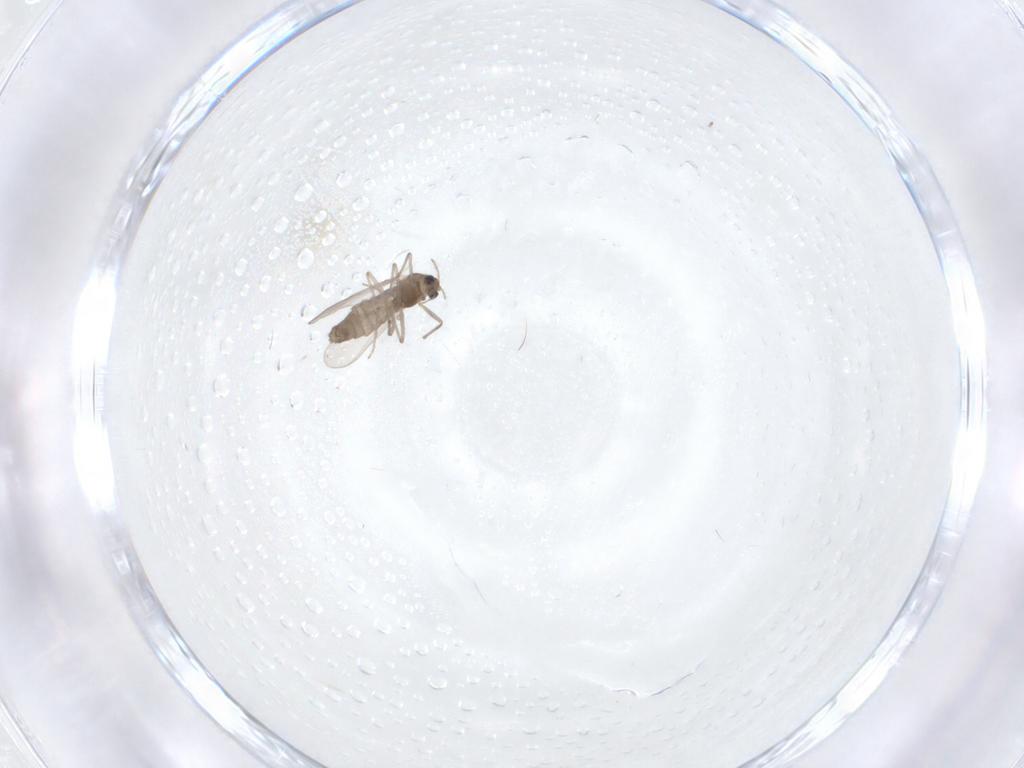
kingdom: Animalia
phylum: Arthropoda
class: Insecta
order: Diptera
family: Chironomidae
